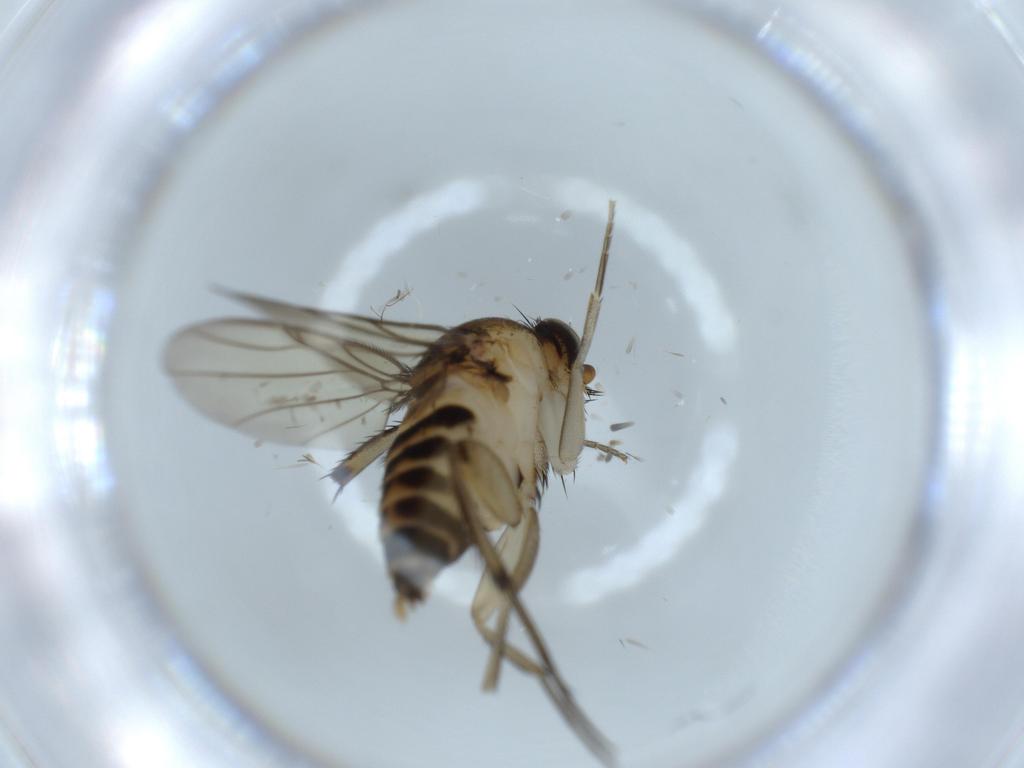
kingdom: Animalia
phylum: Arthropoda
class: Insecta
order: Diptera
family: Phoridae
